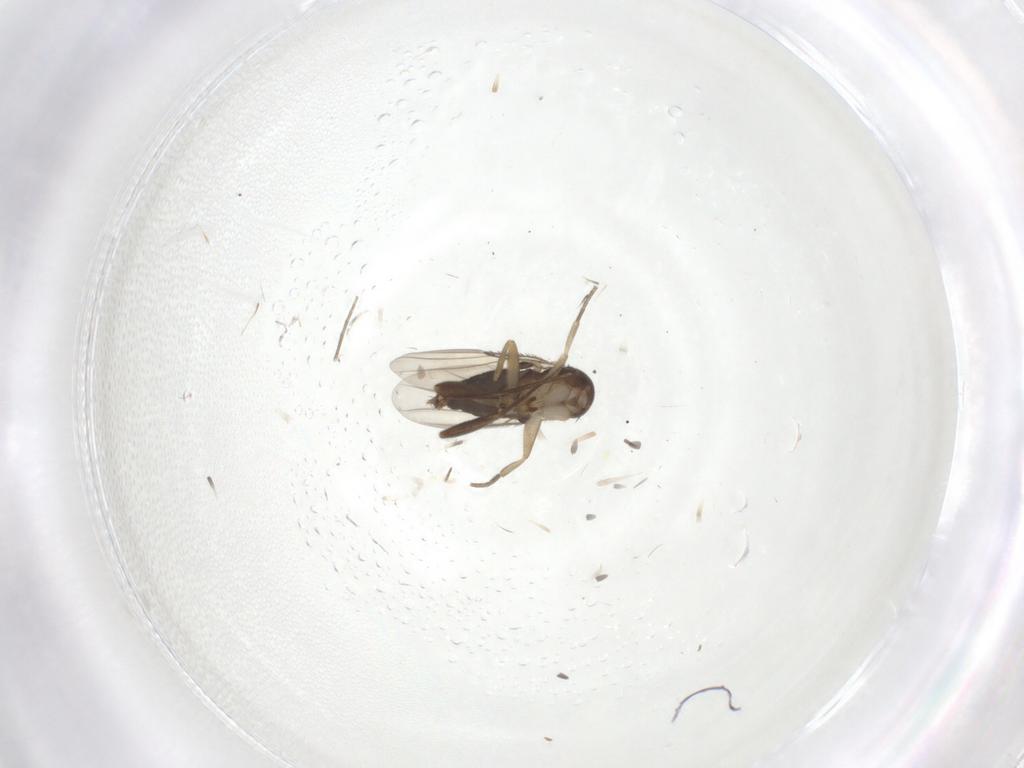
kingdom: Animalia
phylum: Arthropoda
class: Insecta
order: Diptera
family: Phoridae
